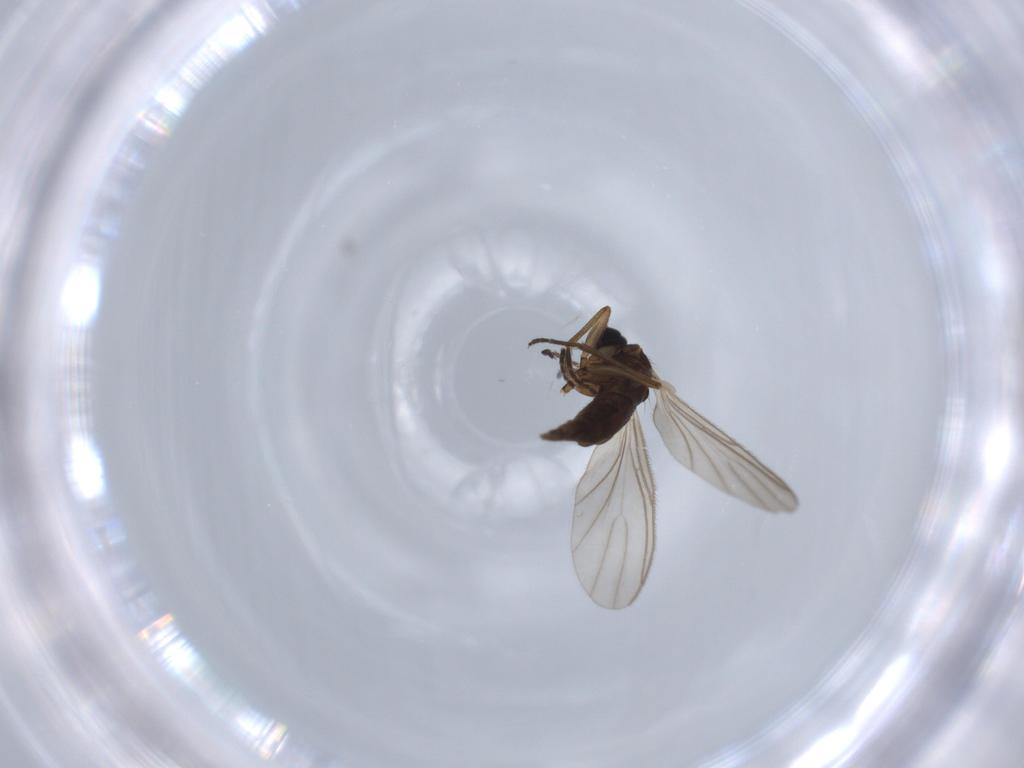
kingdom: Animalia
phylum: Arthropoda
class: Insecta
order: Diptera
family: Sciaridae
